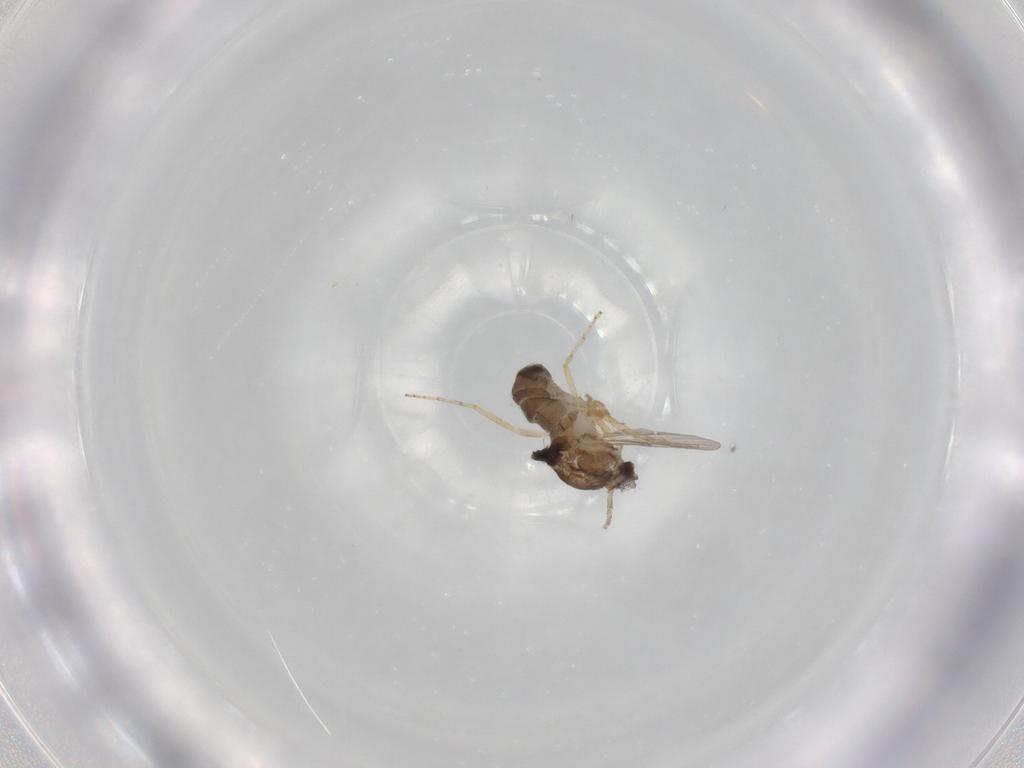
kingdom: Animalia
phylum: Arthropoda
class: Insecta
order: Diptera
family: Ceratopogonidae
